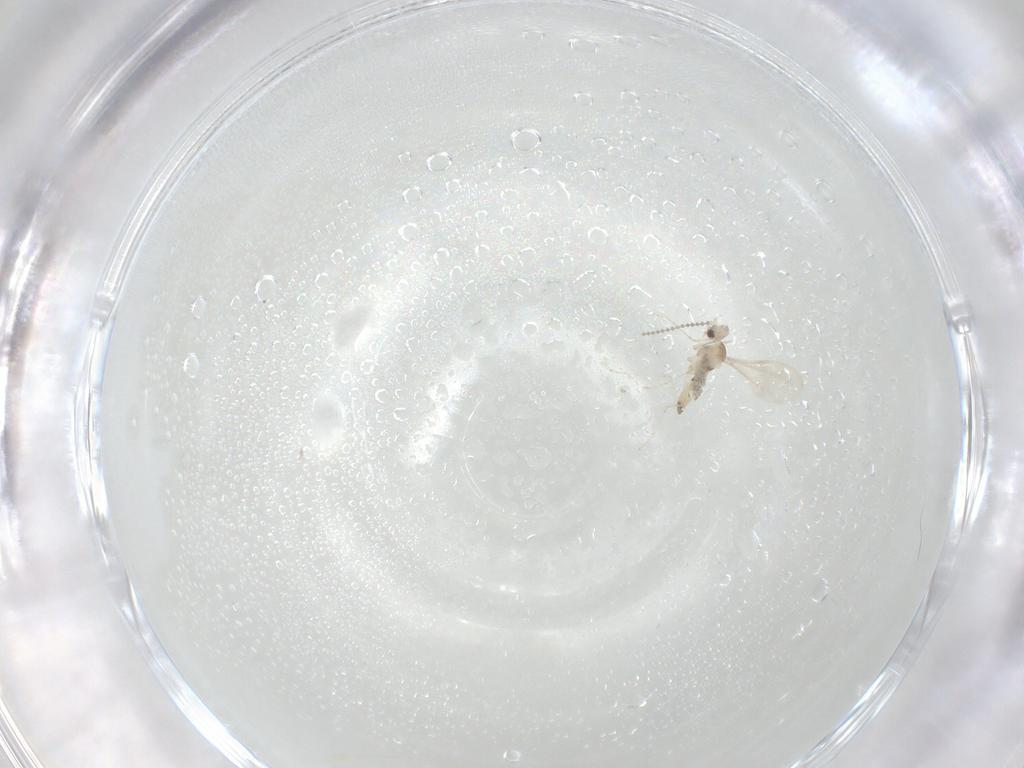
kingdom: Animalia
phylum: Arthropoda
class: Insecta
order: Diptera
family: Cecidomyiidae
